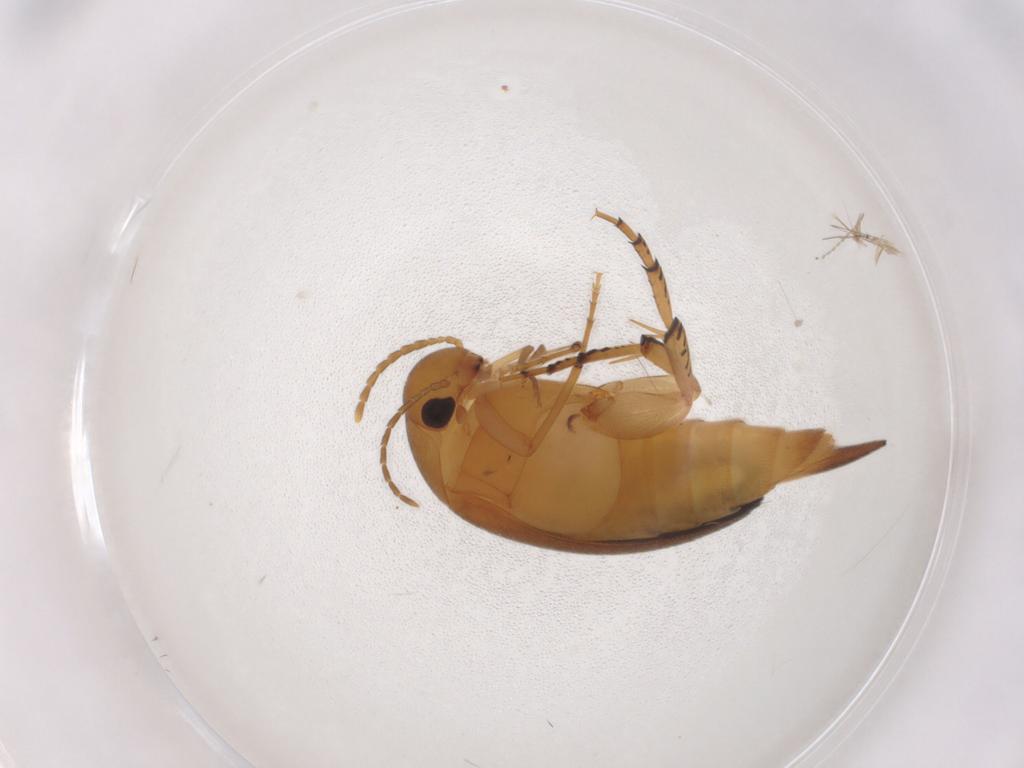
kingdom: Animalia
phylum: Arthropoda
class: Insecta
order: Coleoptera
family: Mordellidae
